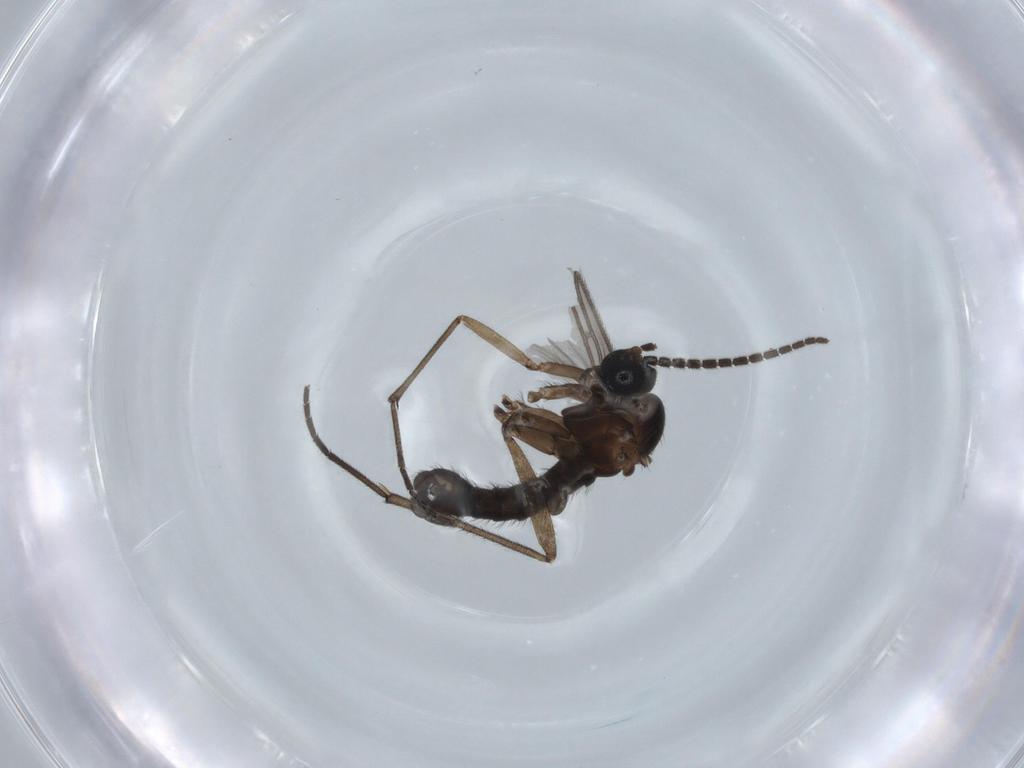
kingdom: Animalia
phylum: Arthropoda
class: Insecta
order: Diptera
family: Sciaridae
